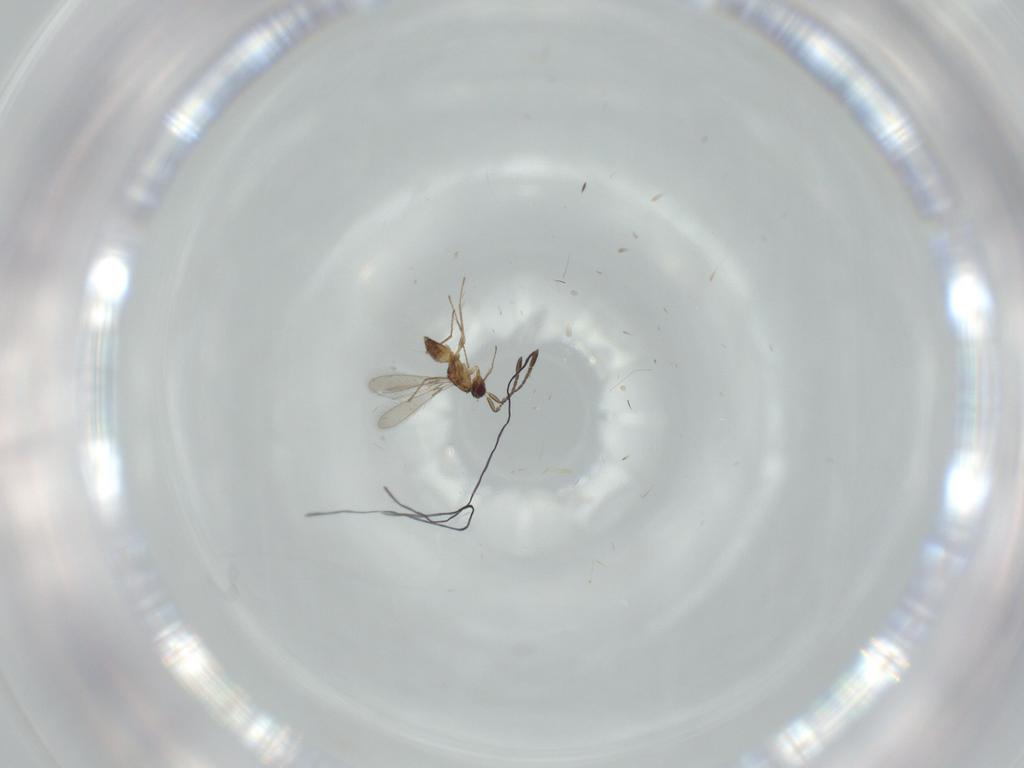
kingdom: Animalia
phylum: Arthropoda
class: Insecta
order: Hymenoptera
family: Mymaridae
